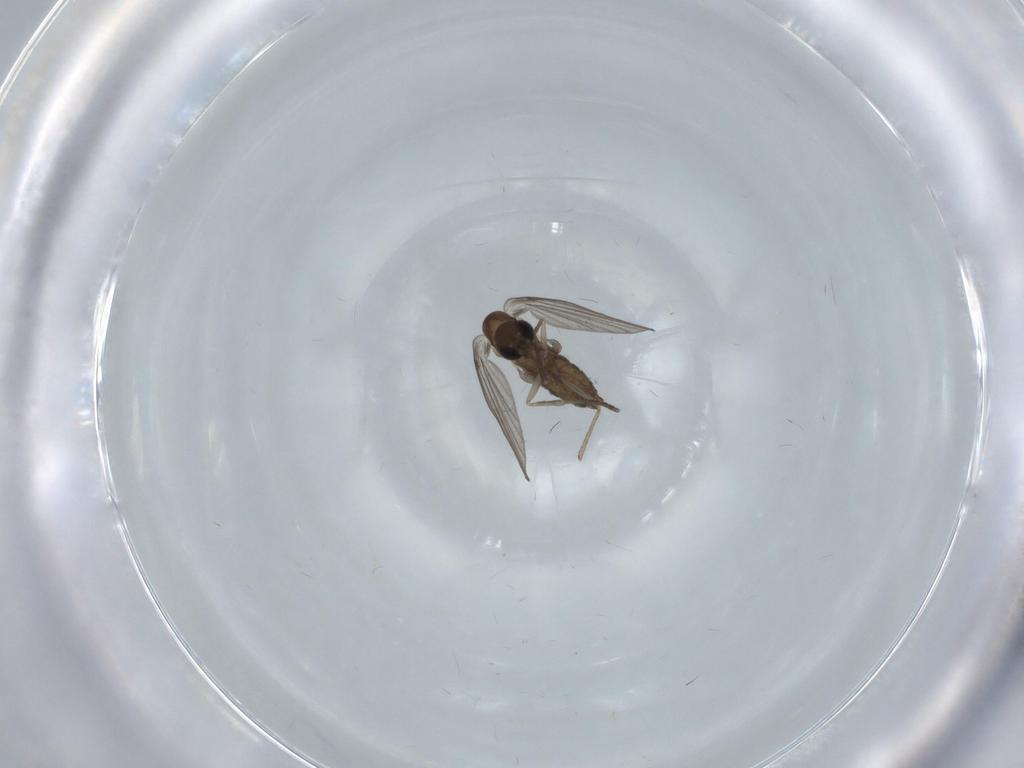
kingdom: Animalia
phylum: Arthropoda
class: Insecta
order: Diptera
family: Psychodidae
